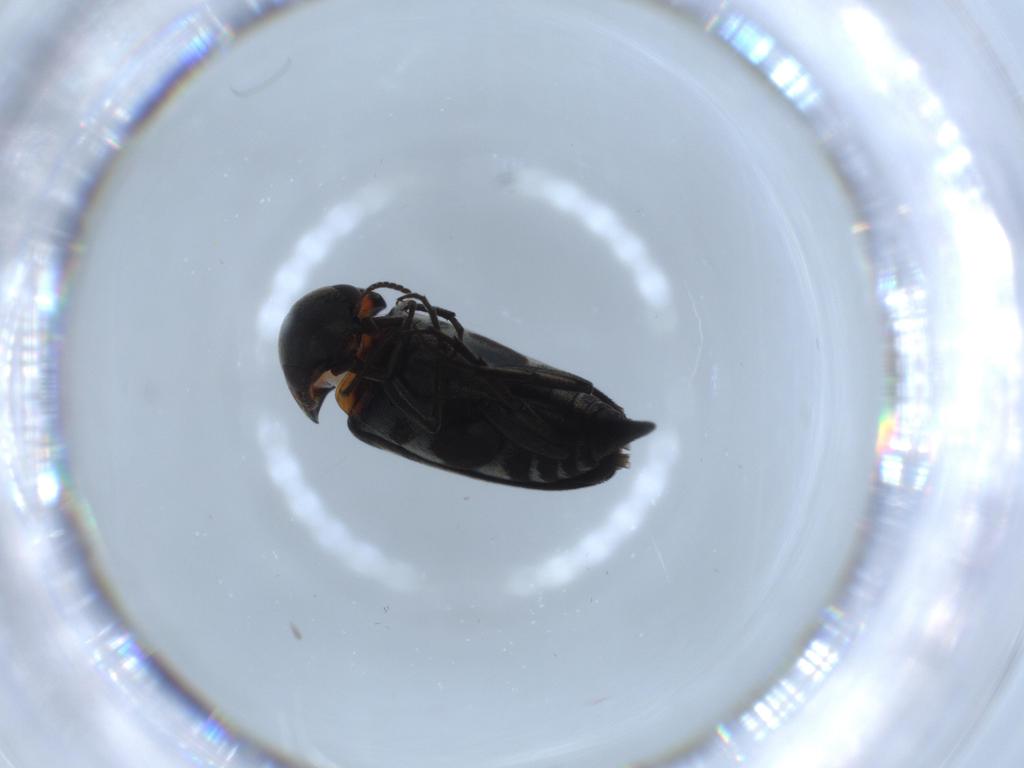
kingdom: Animalia
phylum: Arthropoda
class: Insecta
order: Coleoptera
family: Mordellidae
